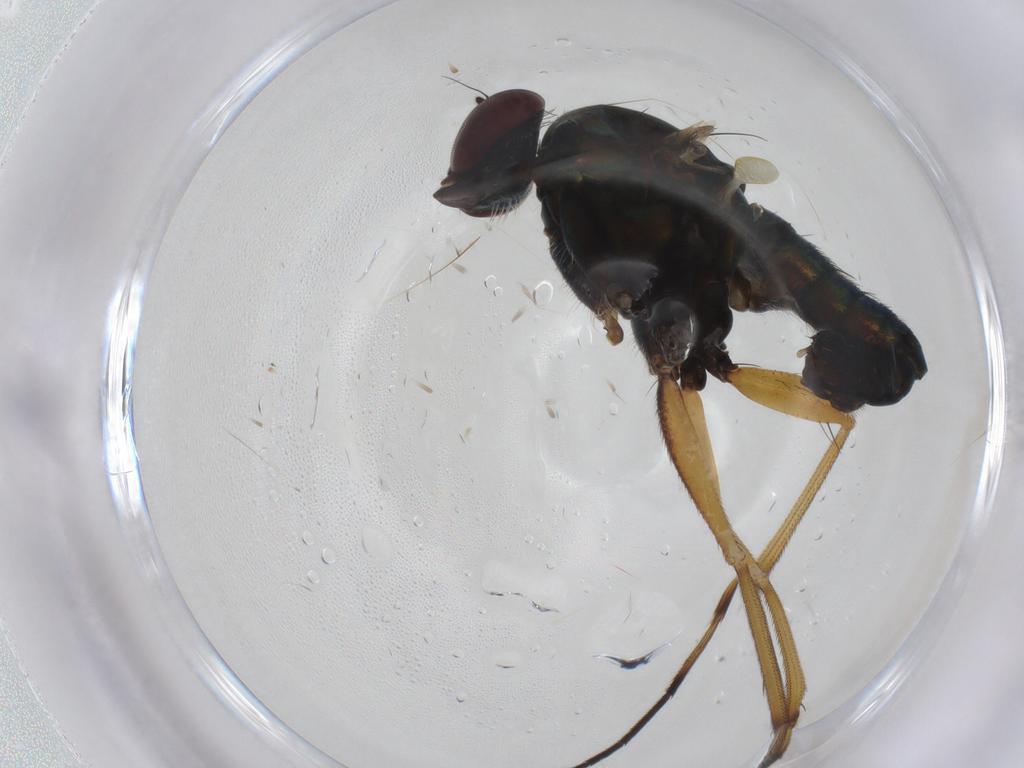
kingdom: Animalia
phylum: Arthropoda
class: Insecta
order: Diptera
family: Dolichopodidae
